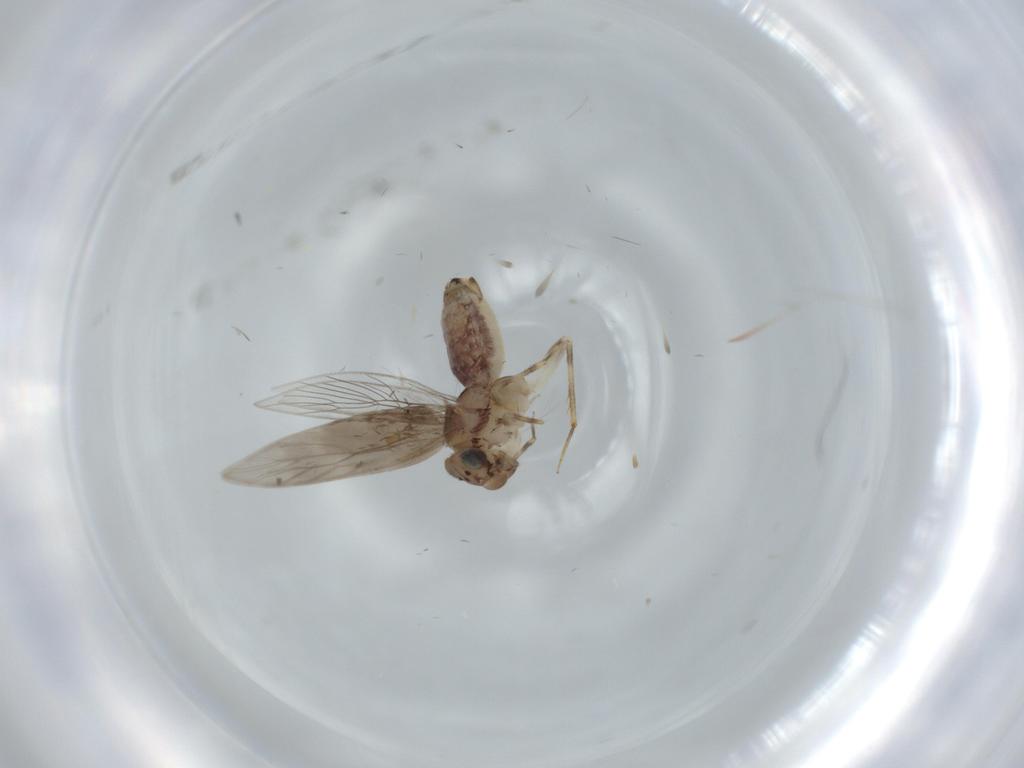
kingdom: Animalia
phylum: Arthropoda
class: Insecta
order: Psocodea
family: Lepidopsocidae
